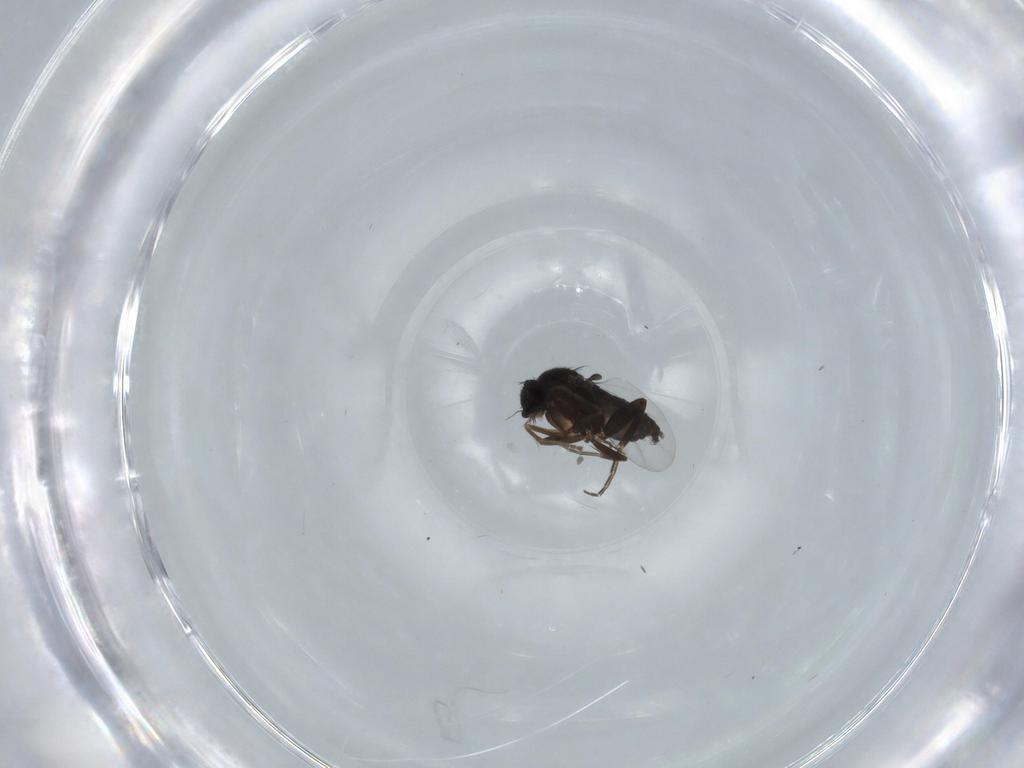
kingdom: Animalia
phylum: Arthropoda
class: Insecta
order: Diptera
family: Phoridae
